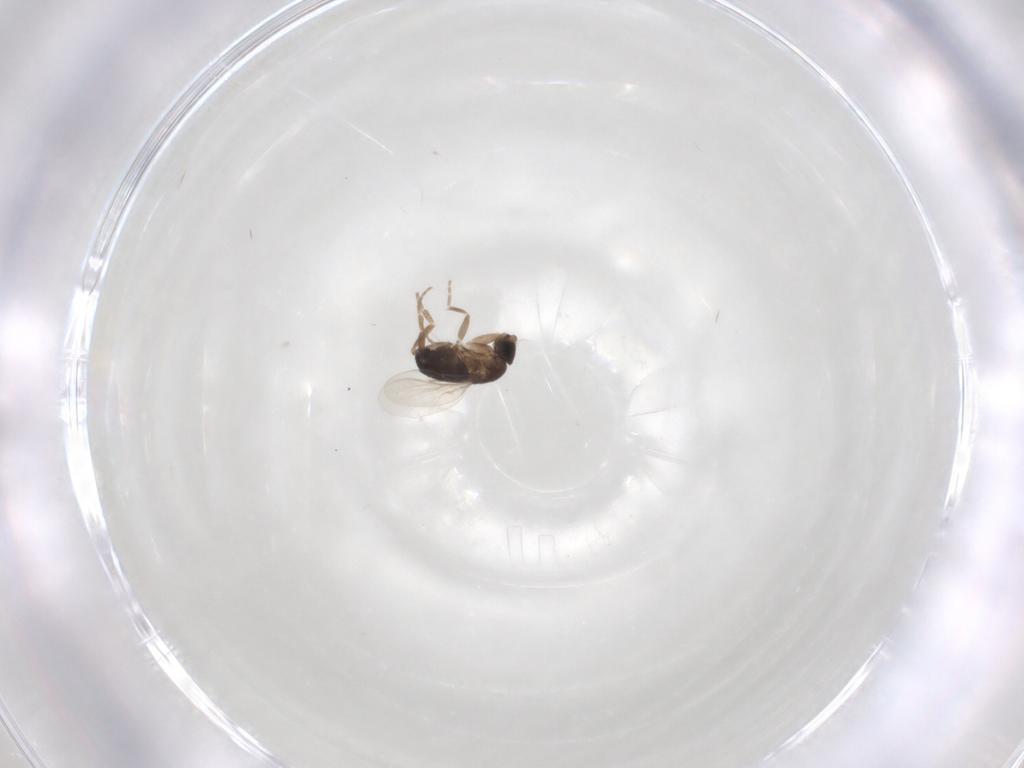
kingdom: Animalia
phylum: Arthropoda
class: Insecta
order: Diptera
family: Phoridae
